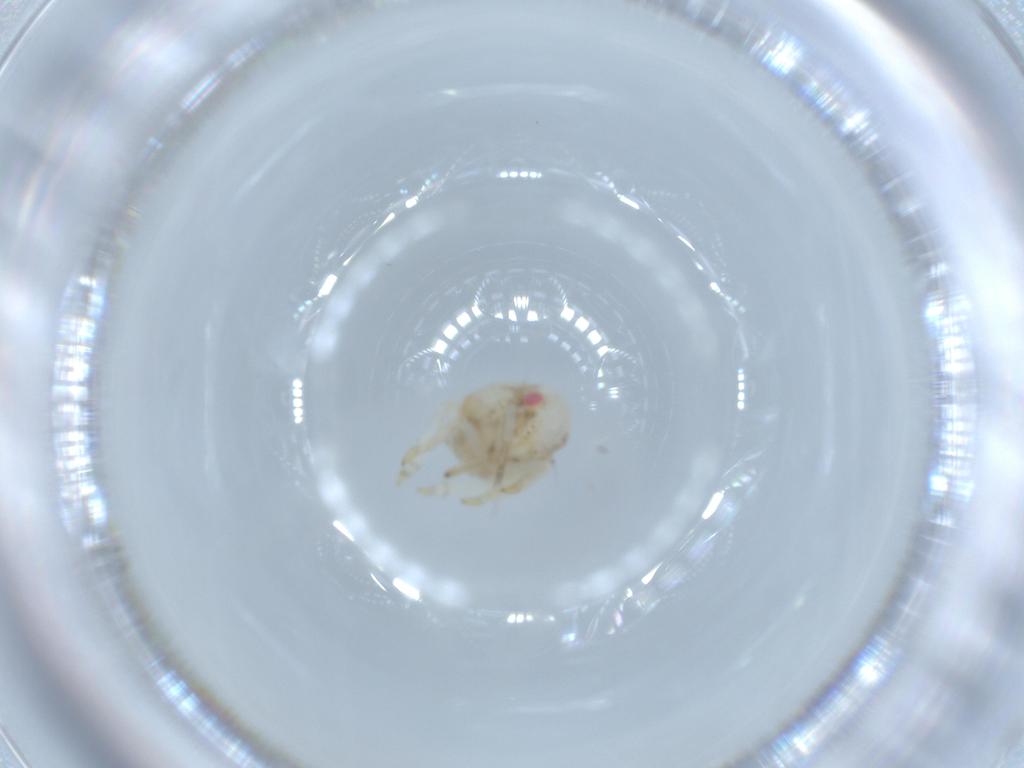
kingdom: Animalia
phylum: Arthropoda
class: Insecta
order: Hemiptera
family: Acanaloniidae
